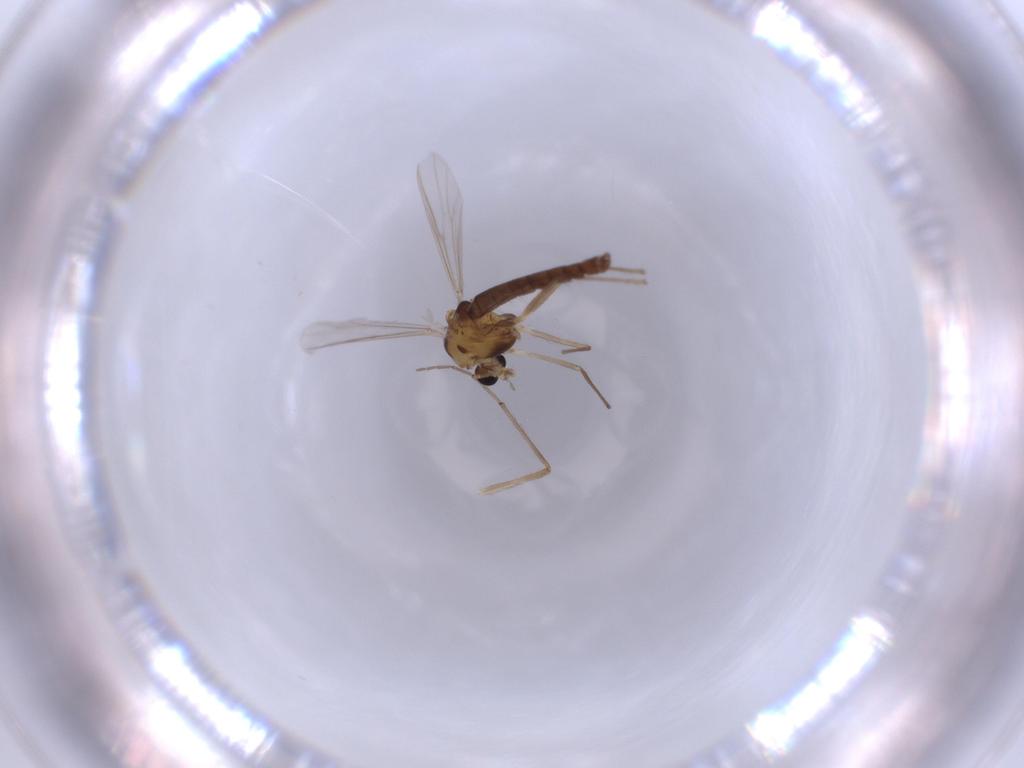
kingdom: Animalia
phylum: Arthropoda
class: Insecta
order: Diptera
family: Chironomidae
